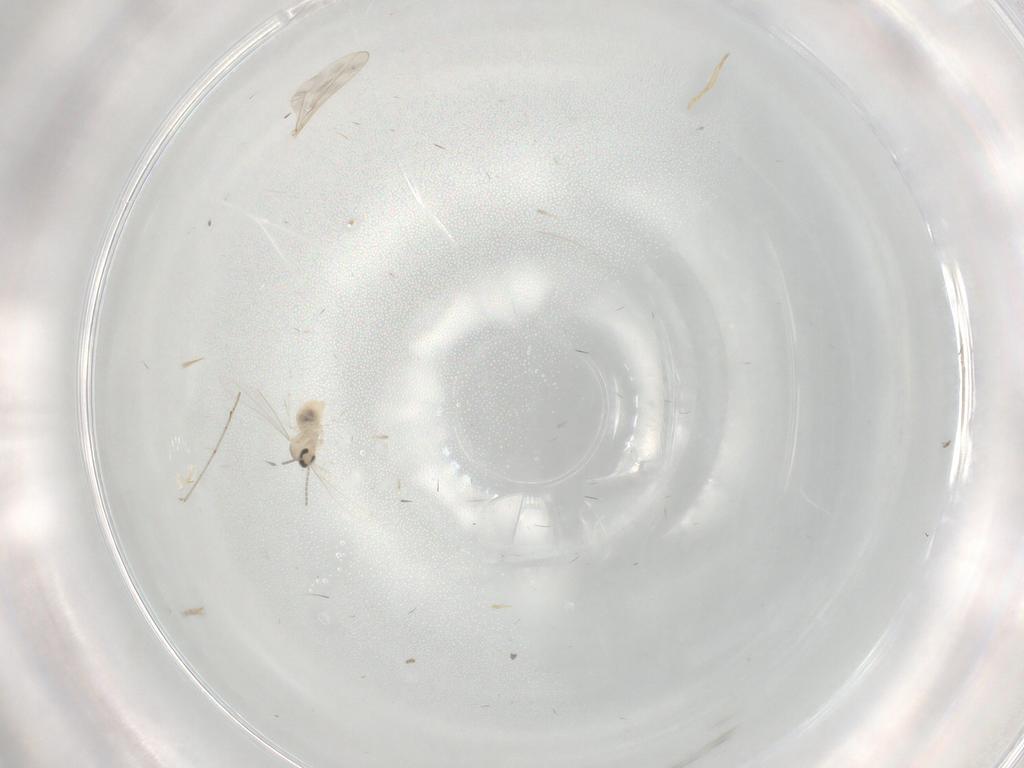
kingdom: Animalia
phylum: Arthropoda
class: Insecta
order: Diptera
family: Cecidomyiidae
